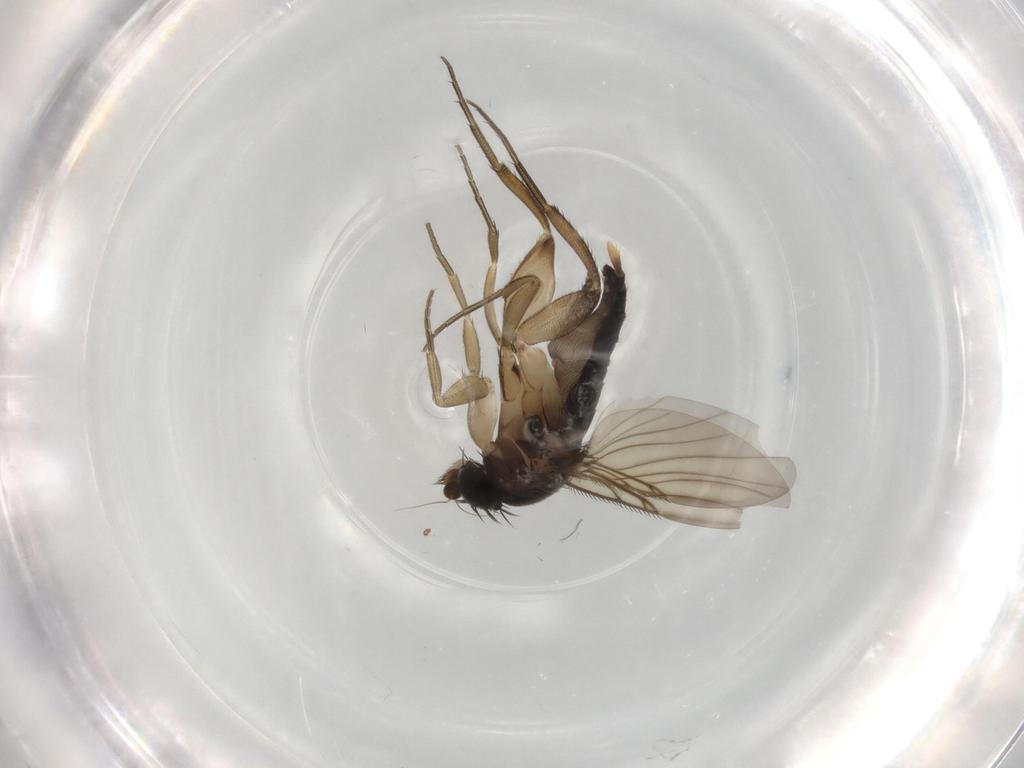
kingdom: Animalia
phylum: Arthropoda
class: Insecta
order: Diptera
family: Phoridae
